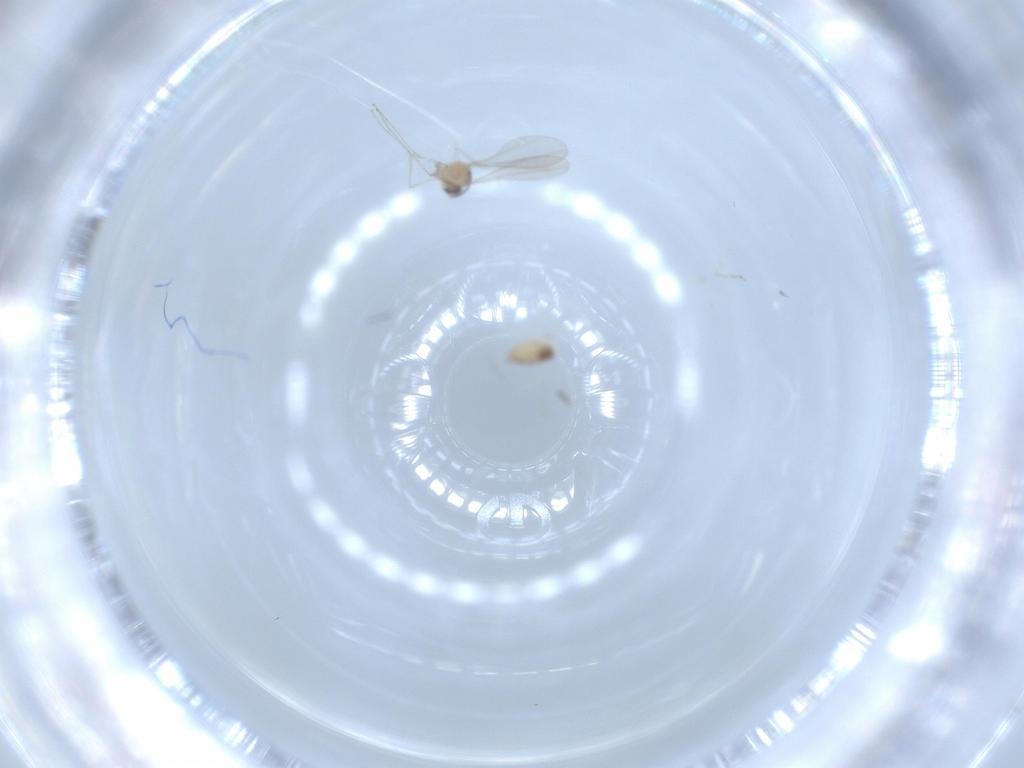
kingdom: Animalia
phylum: Arthropoda
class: Insecta
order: Diptera
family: Cecidomyiidae
